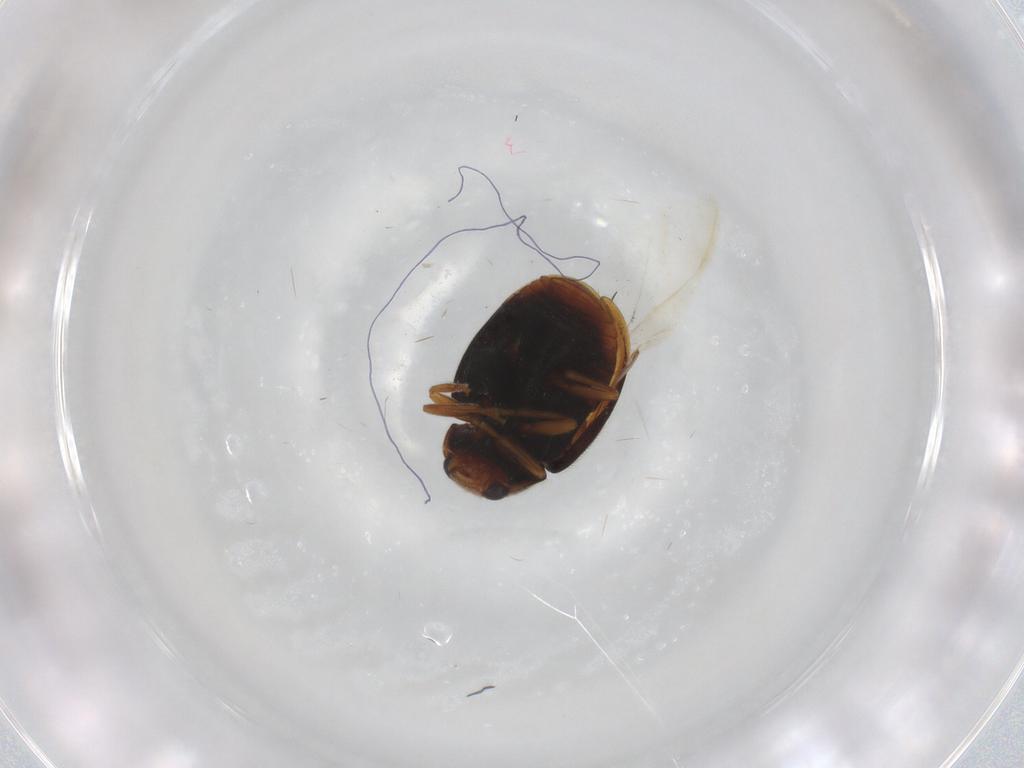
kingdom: Animalia
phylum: Arthropoda
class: Insecta
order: Coleoptera
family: Coccinellidae
